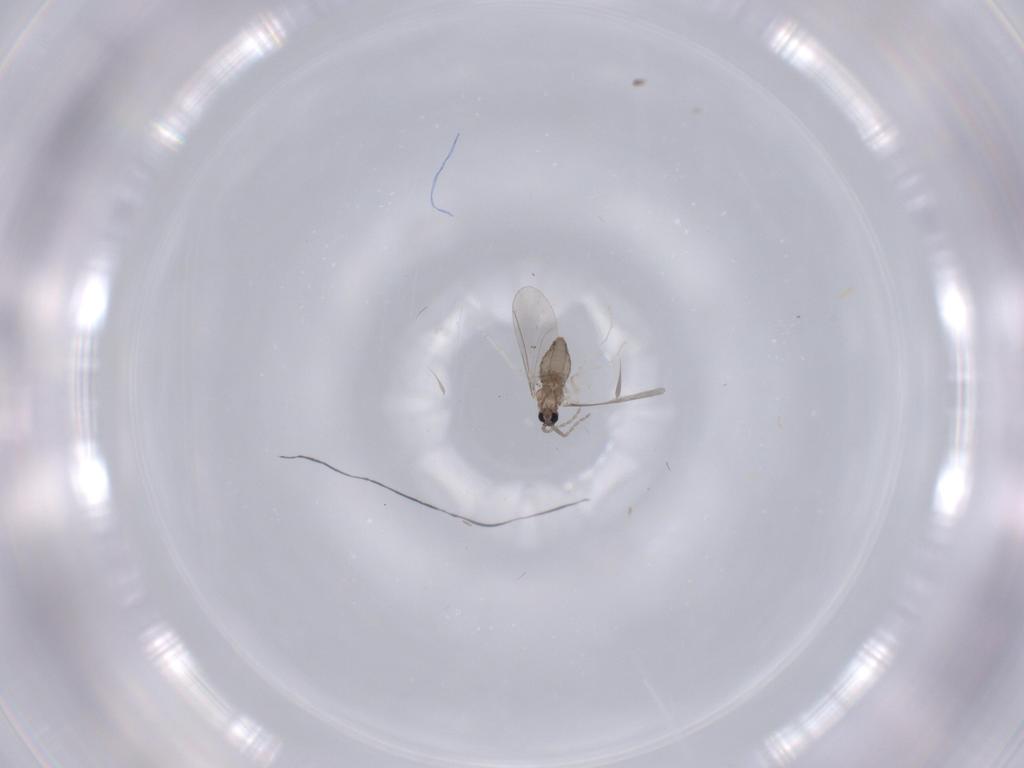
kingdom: Animalia
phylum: Arthropoda
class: Insecta
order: Diptera
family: Cecidomyiidae
